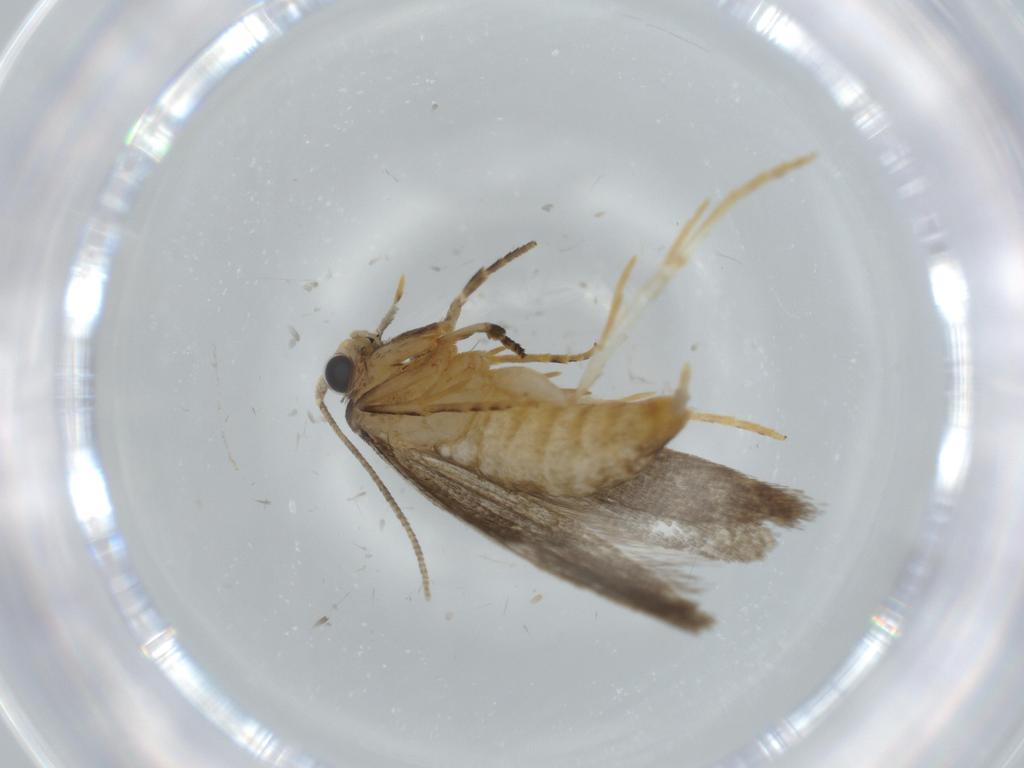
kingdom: Animalia
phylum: Arthropoda
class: Insecta
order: Lepidoptera
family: Tineidae
